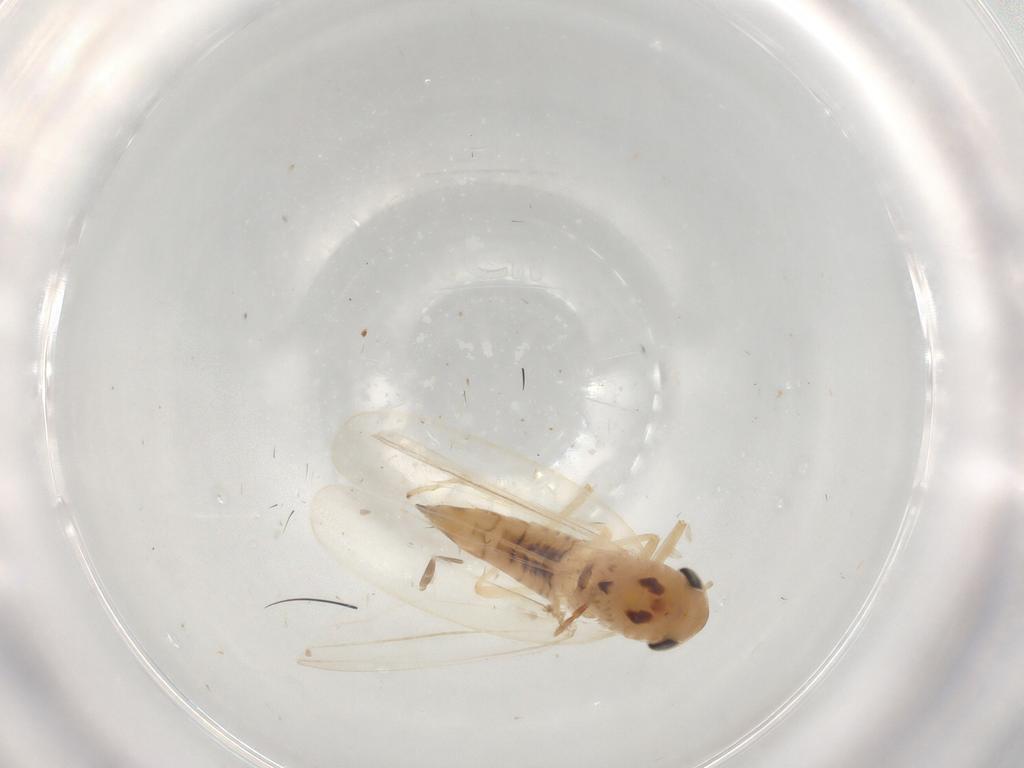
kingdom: Animalia
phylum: Arthropoda
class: Insecta
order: Hemiptera
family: Cicadellidae
